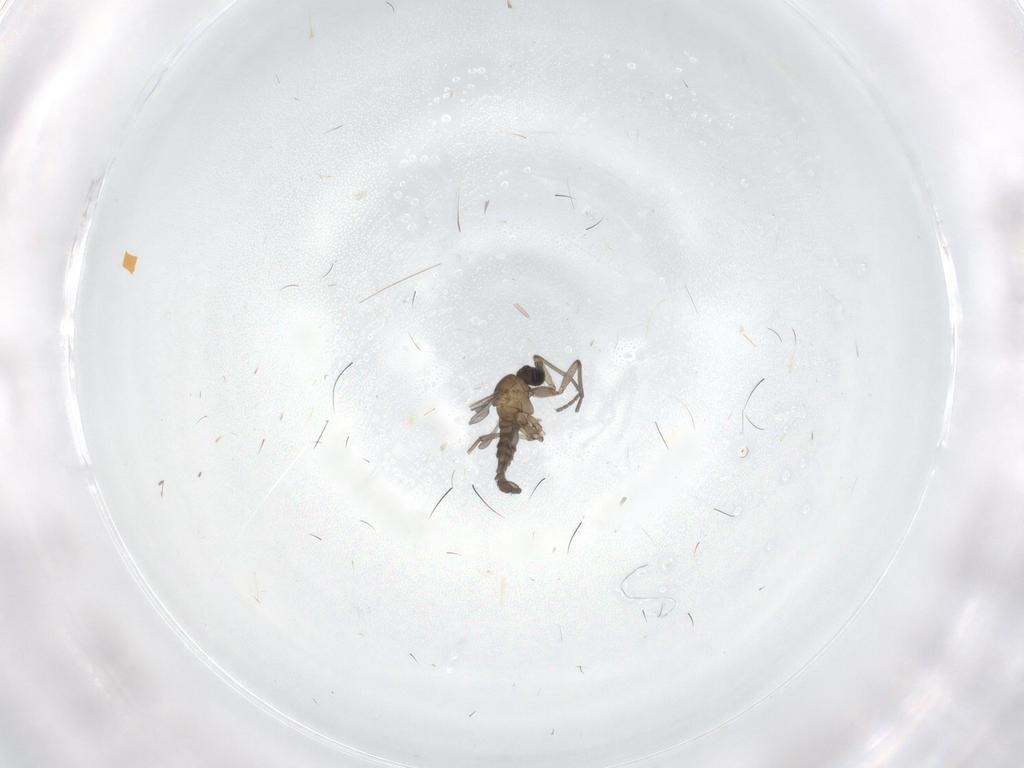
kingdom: Animalia
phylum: Arthropoda
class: Insecta
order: Diptera
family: Sciaridae
